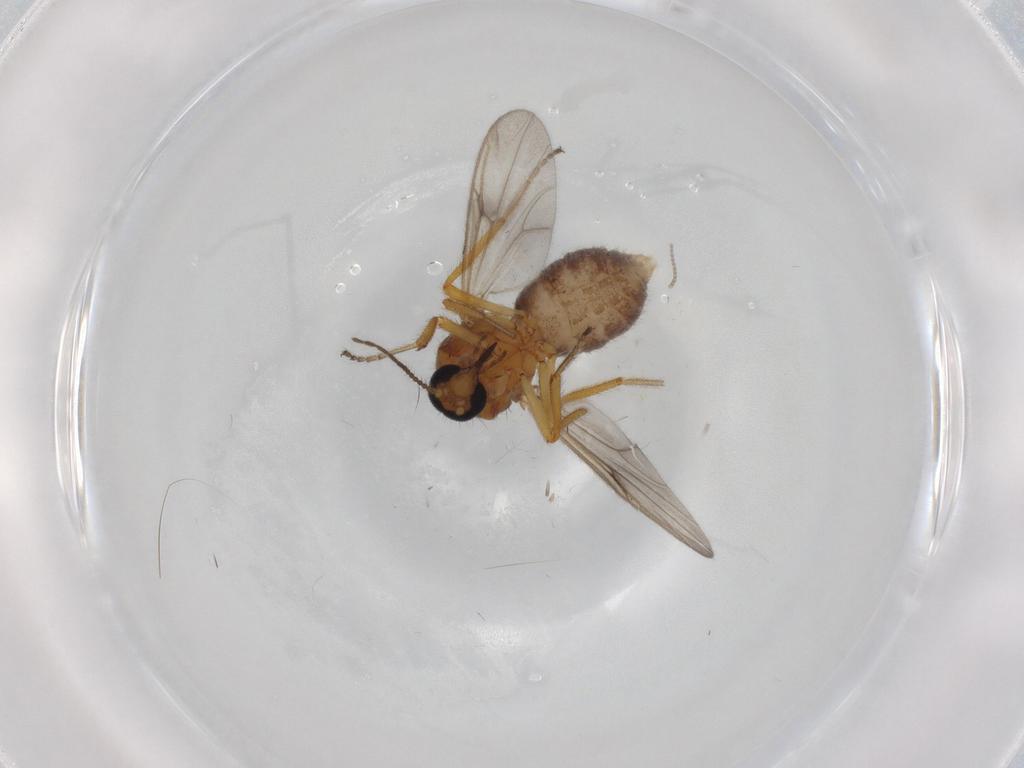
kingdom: Animalia
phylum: Arthropoda
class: Insecta
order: Diptera
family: Ceratopogonidae
